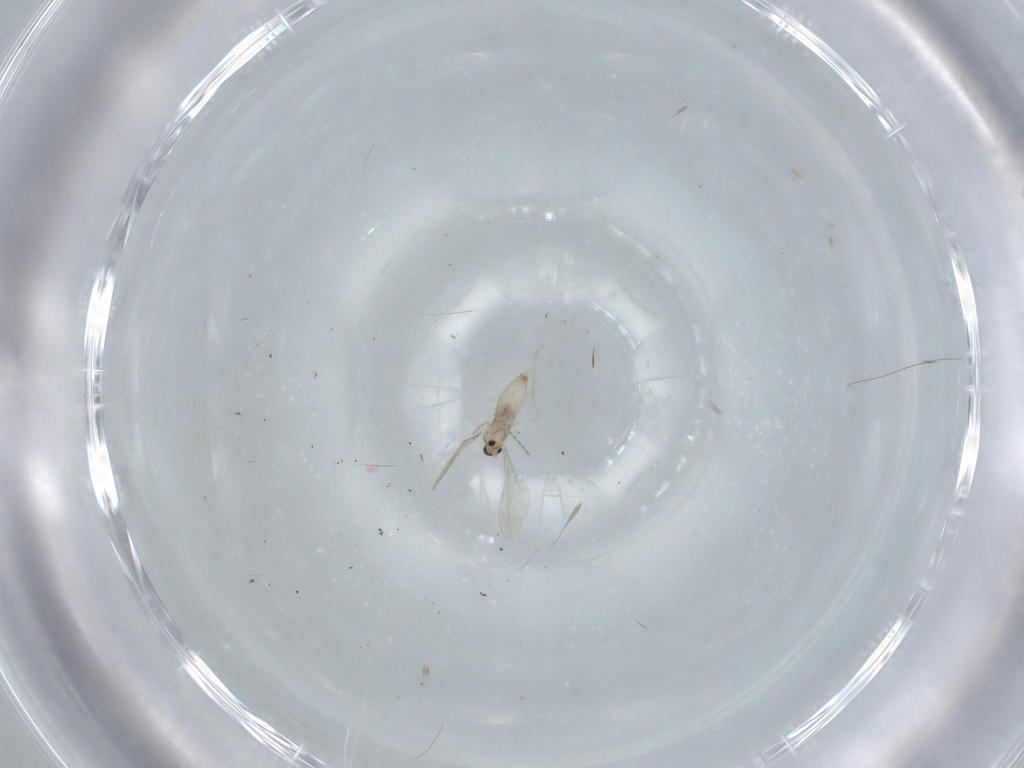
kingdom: Animalia
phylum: Arthropoda
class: Insecta
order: Diptera
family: Cecidomyiidae
